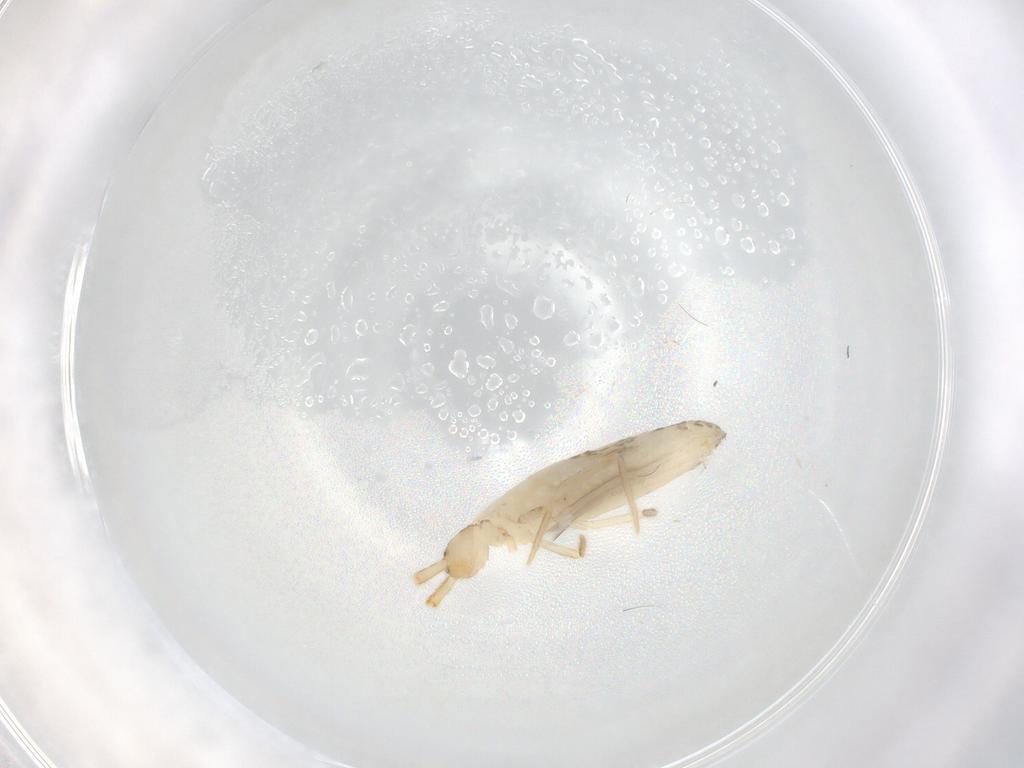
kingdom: Animalia
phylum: Arthropoda
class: Collembola
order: Entomobryomorpha
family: Entomobryidae
